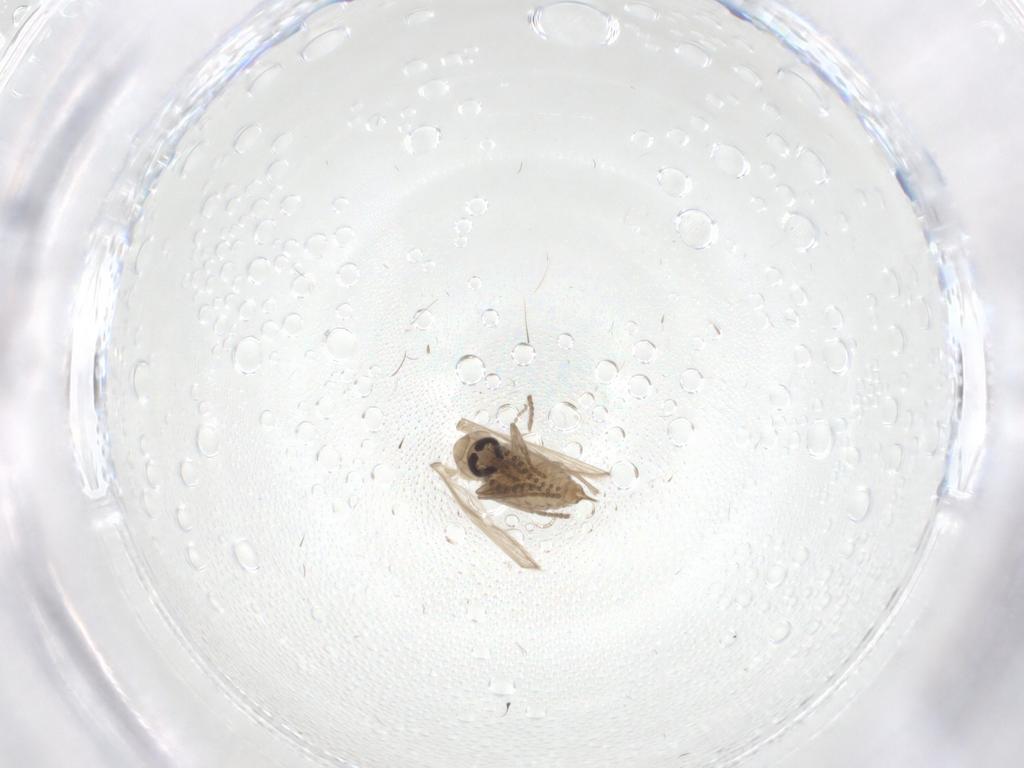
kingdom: Animalia
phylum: Arthropoda
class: Insecta
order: Diptera
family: Psychodidae
